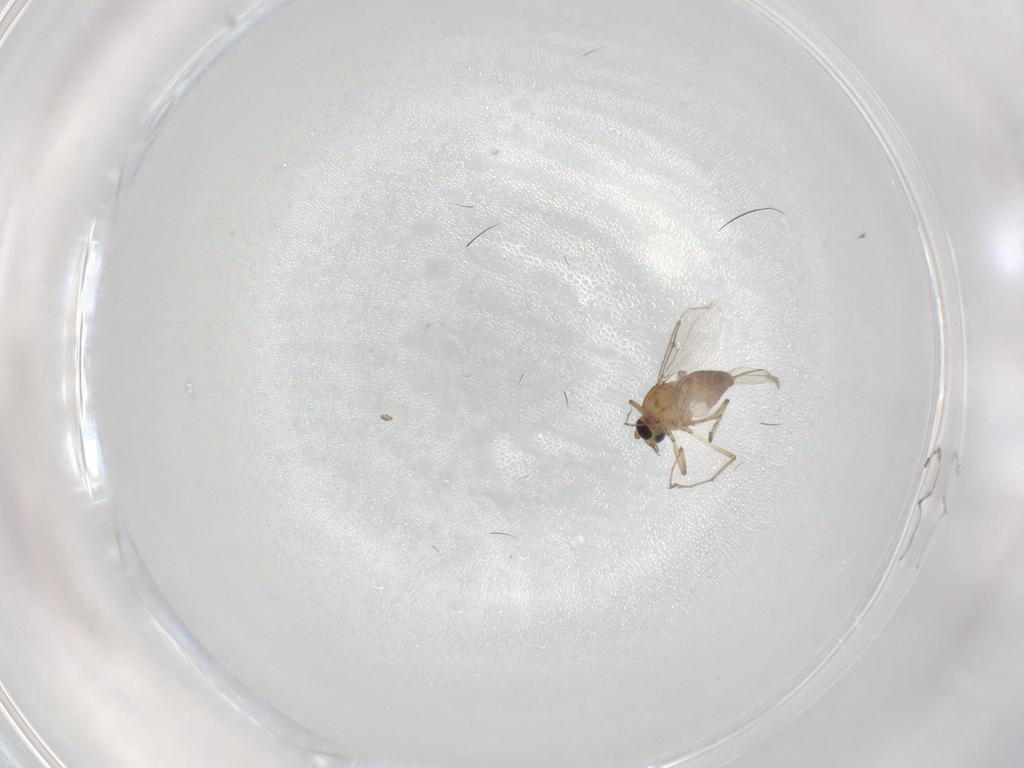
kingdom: Animalia
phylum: Arthropoda
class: Insecta
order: Diptera
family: Ceratopogonidae
